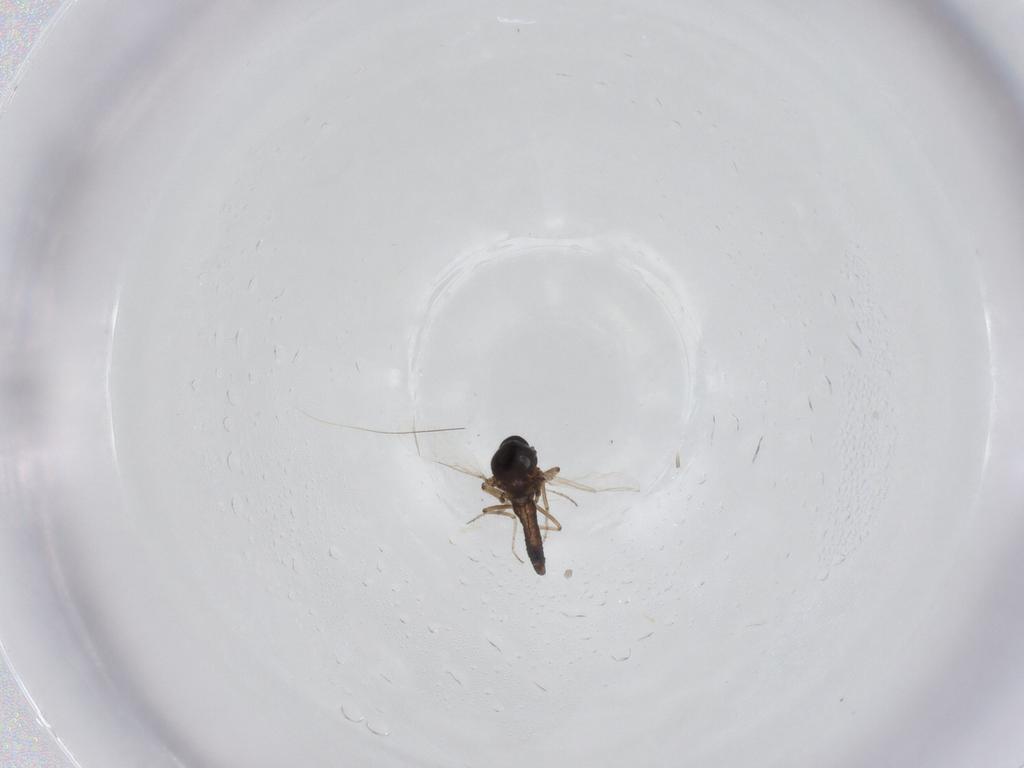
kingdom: Animalia
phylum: Arthropoda
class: Insecta
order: Diptera
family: Ceratopogonidae
